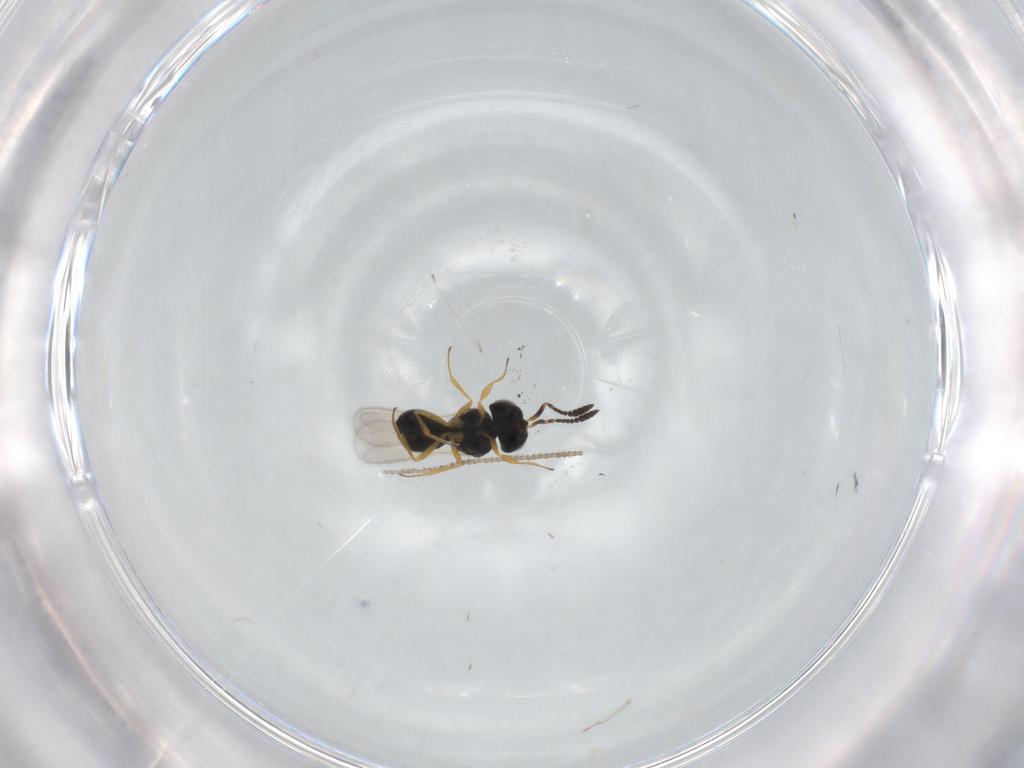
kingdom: Animalia
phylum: Arthropoda
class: Insecta
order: Hymenoptera
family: Scelionidae
